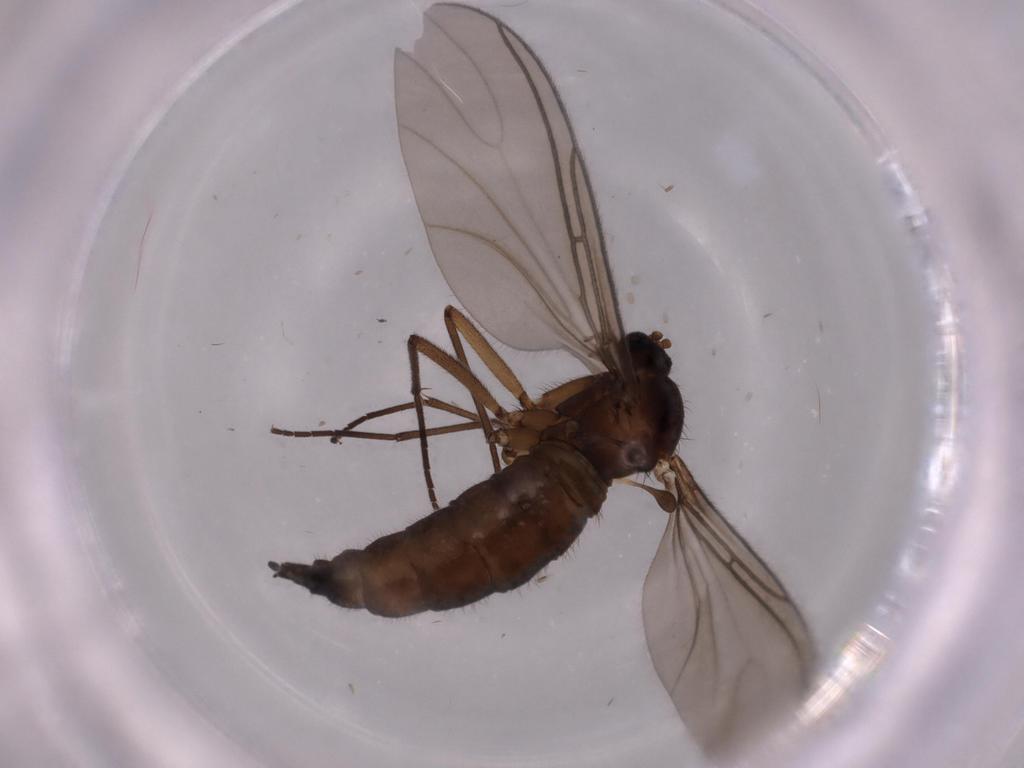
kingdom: Animalia
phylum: Arthropoda
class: Insecta
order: Diptera
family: Sciaridae
